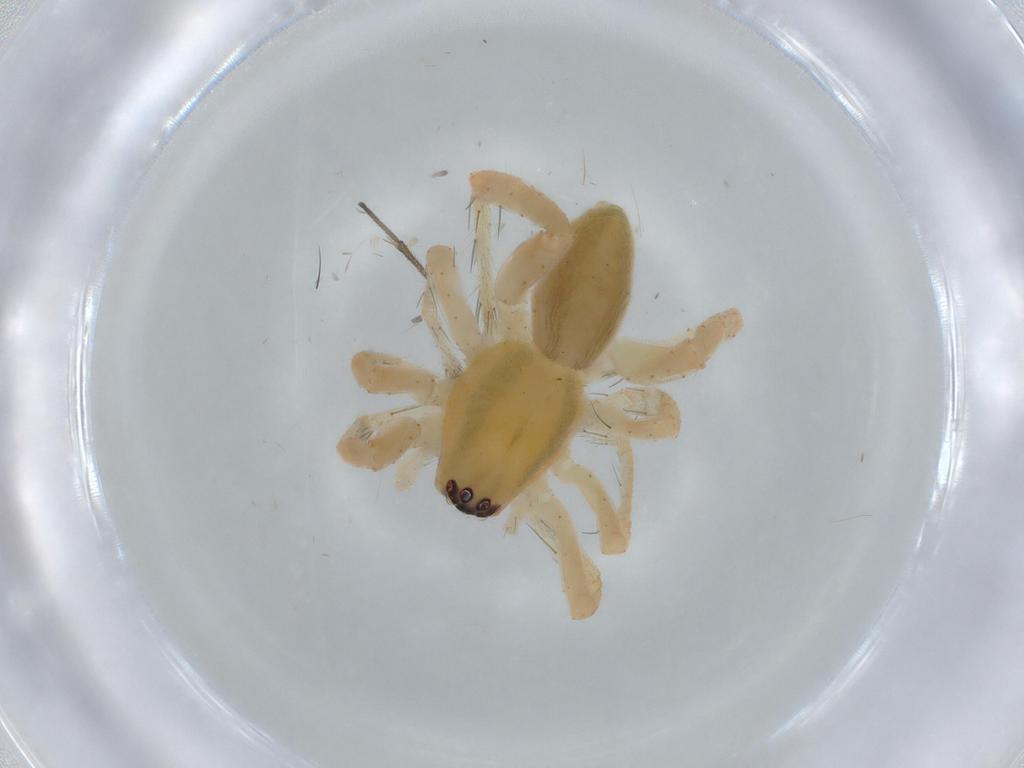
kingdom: Animalia
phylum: Arthropoda
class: Arachnida
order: Araneae
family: Anyphaenidae
